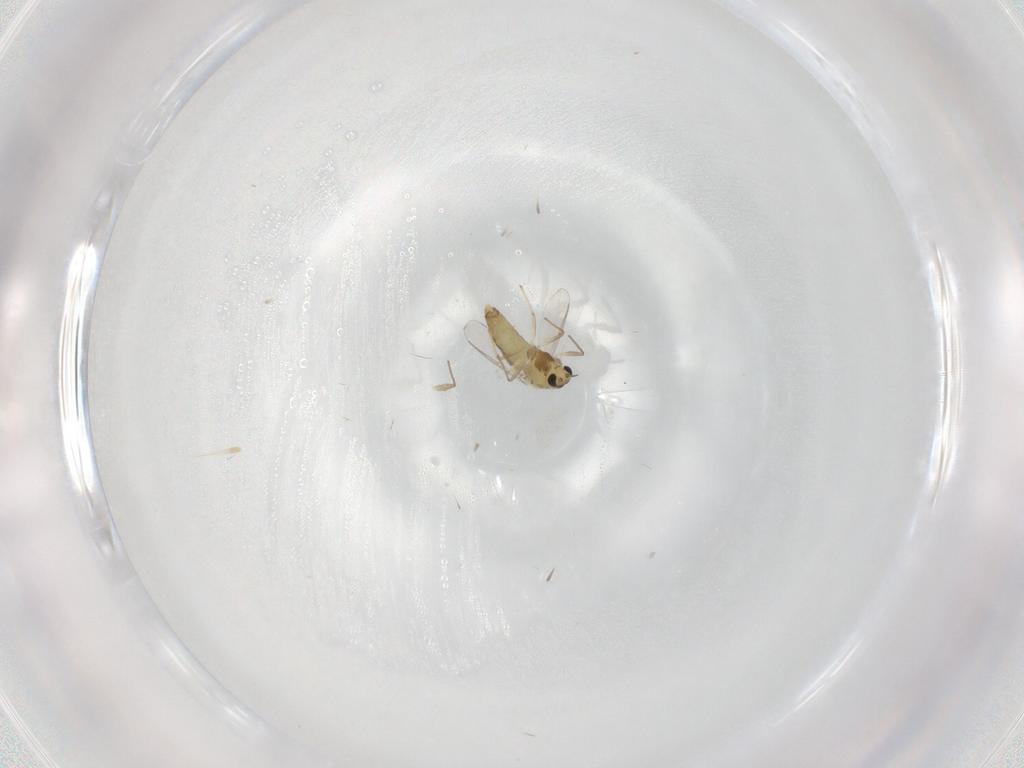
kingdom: Animalia
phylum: Arthropoda
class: Insecta
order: Diptera
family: Chironomidae
